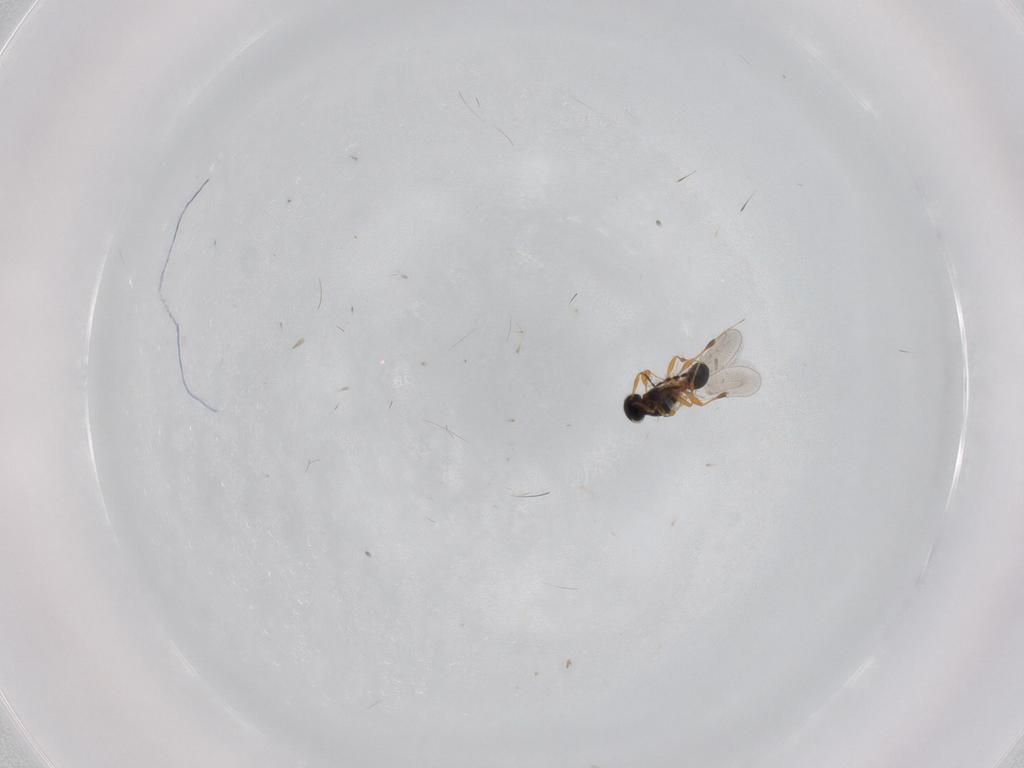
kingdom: Animalia
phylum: Arthropoda
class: Insecta
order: Hymenoptera
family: Platygastridae
